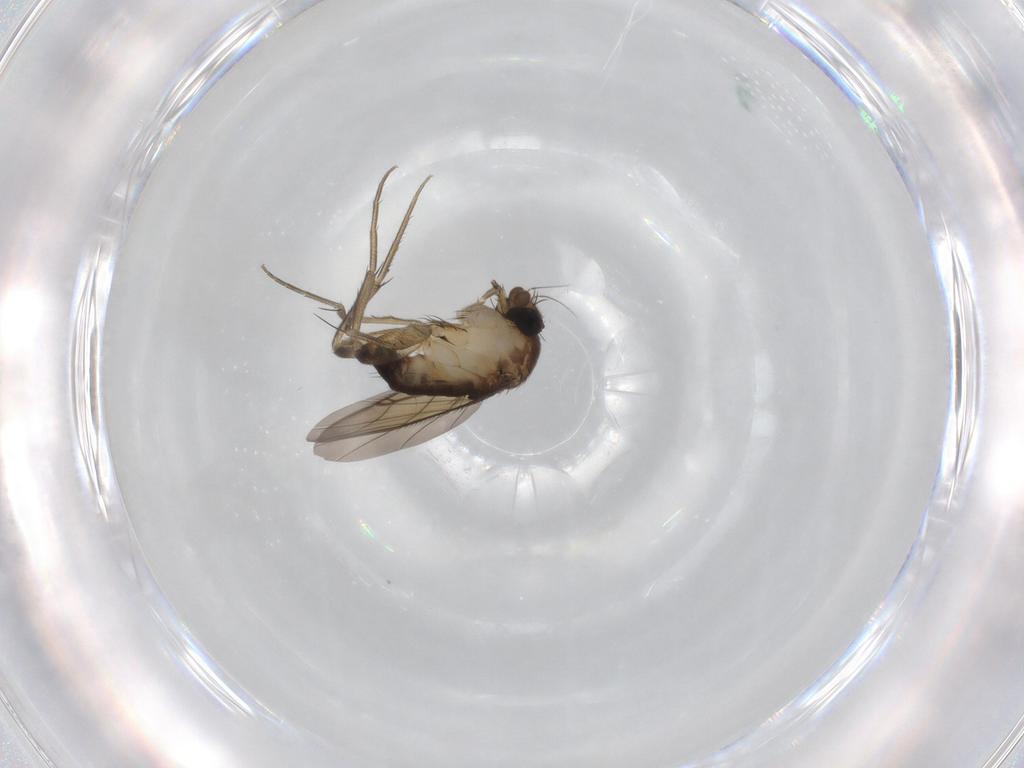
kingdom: Animalia
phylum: Arthropoda
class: Insecta
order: Diptera
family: Phoridae
